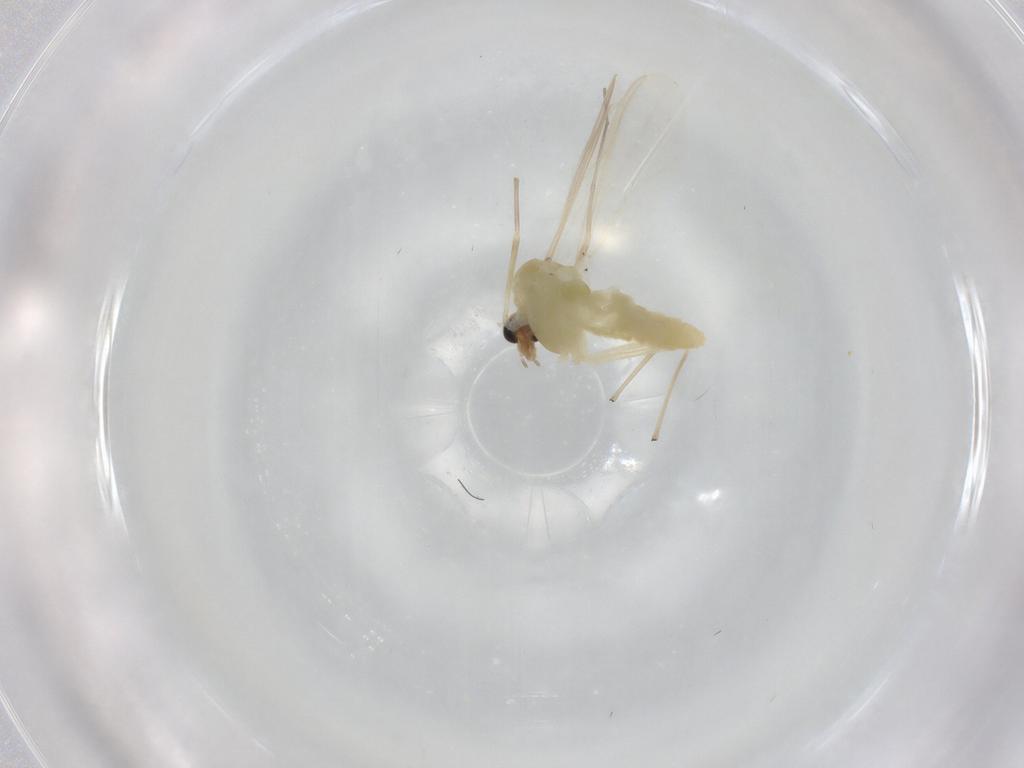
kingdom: Animalia
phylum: Arthropoda
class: Insecta
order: Diptera
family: Chironomidae
